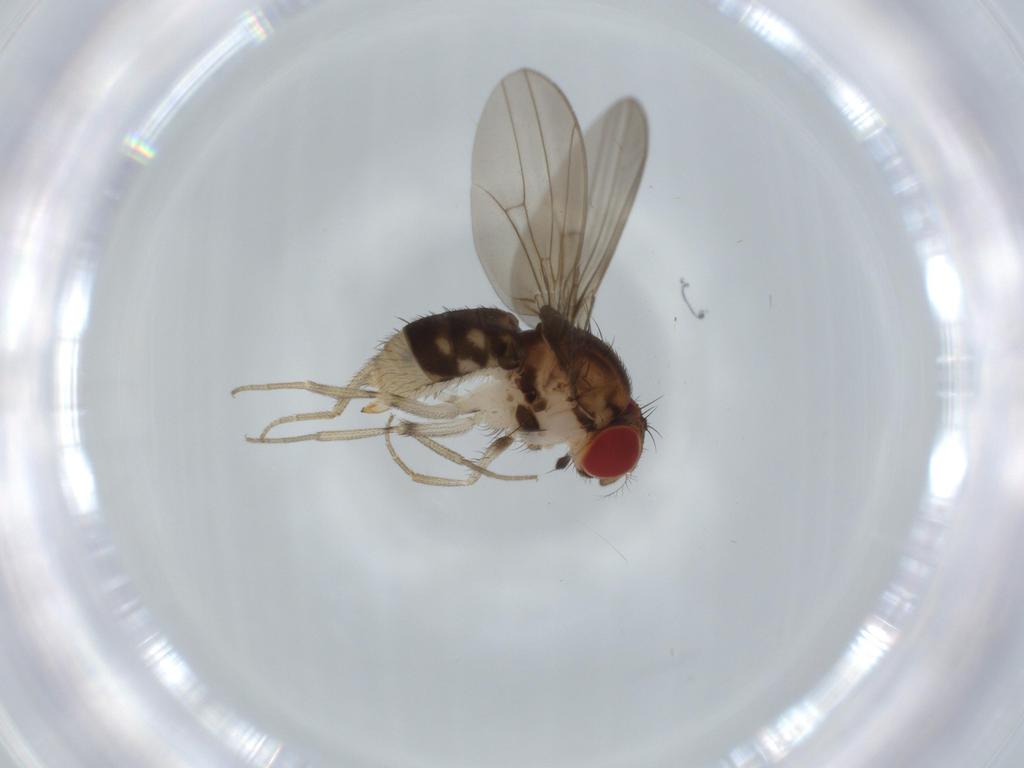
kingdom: Animalia
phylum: Arthropoda
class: Insecta
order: Diptera
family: Drosophilidae
